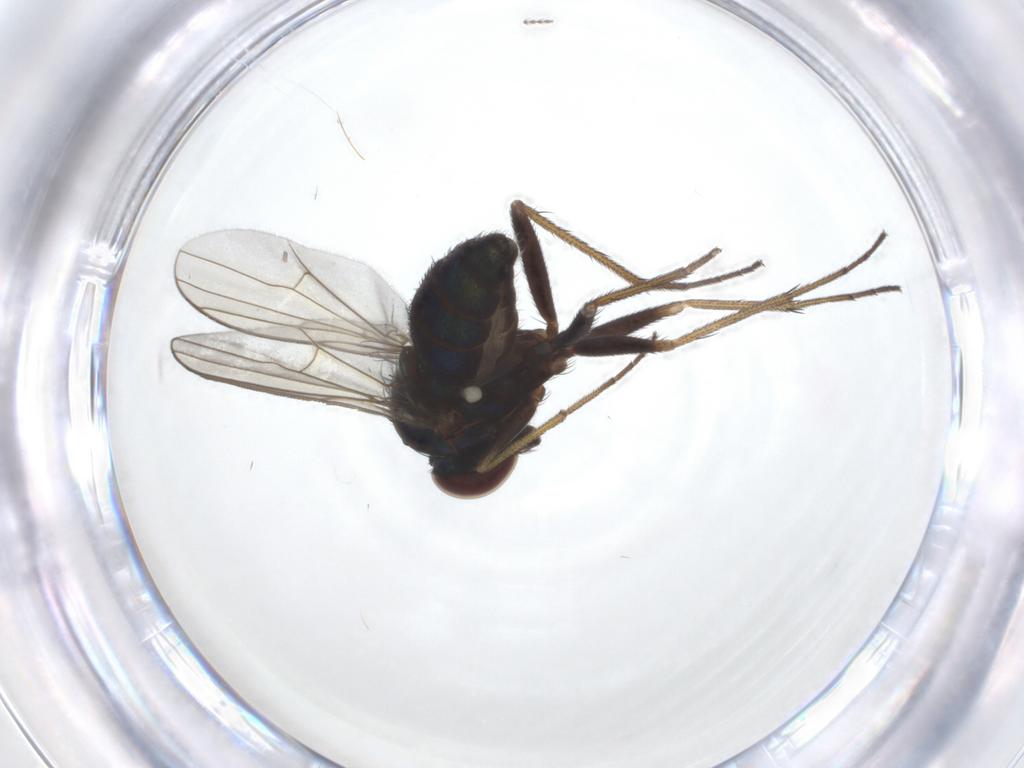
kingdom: Animalia
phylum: Arthropoda
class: Insecta
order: Diptera
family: Dolichopodidae
